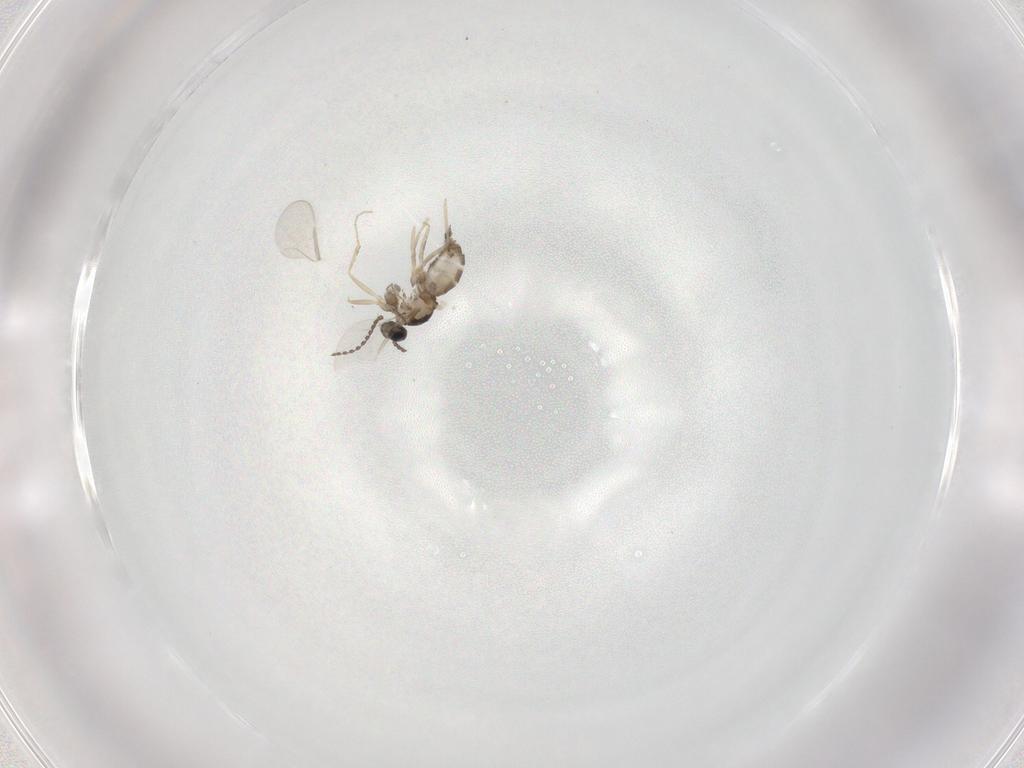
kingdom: Animalia
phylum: Arthropoda
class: Insecta
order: Diptera
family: Cecidomyiidae
